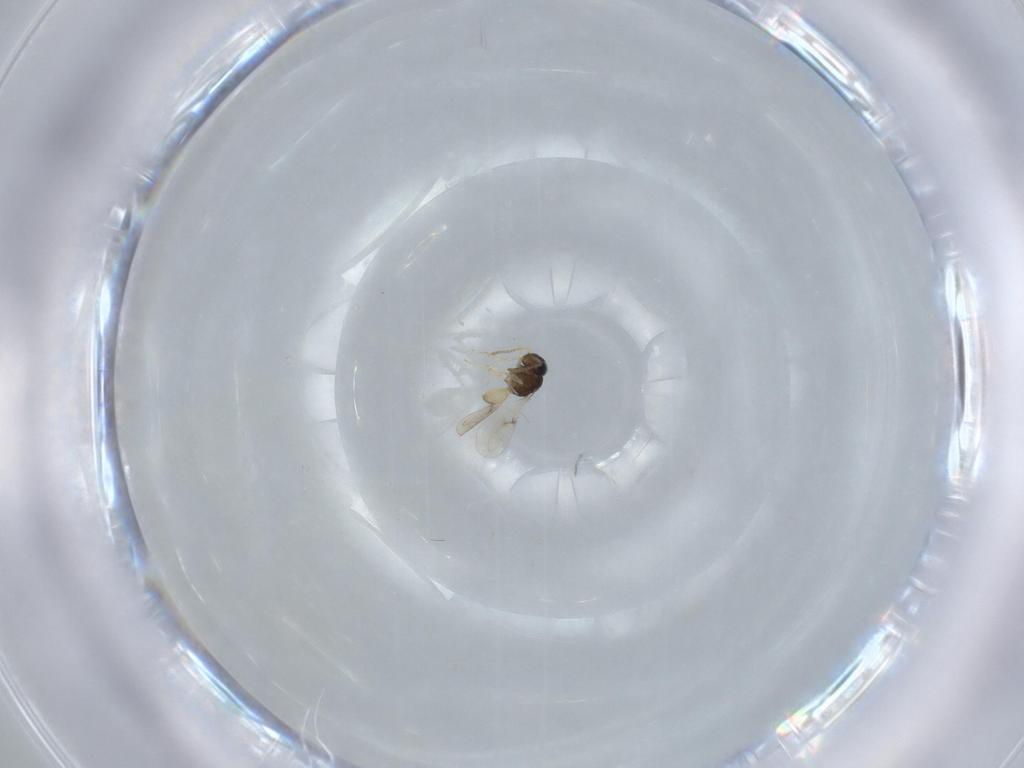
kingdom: Animalia
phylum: Arthropoda
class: Insecta
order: Hymenoptera
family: Scelionidae
